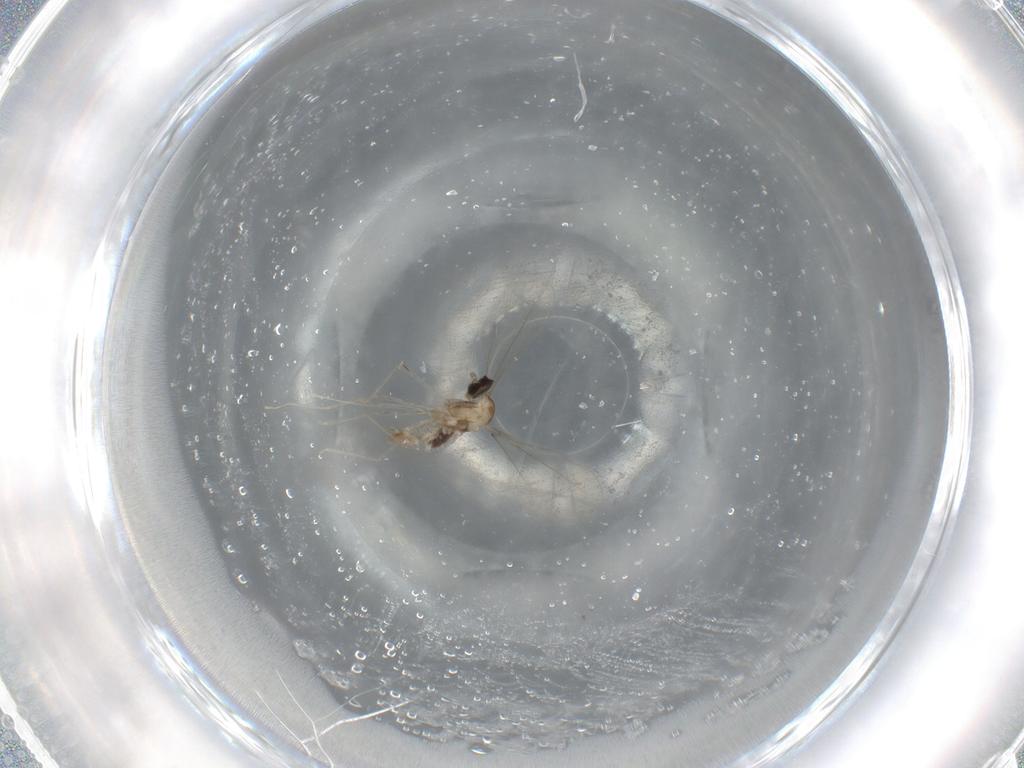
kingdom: Animalia
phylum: Arthropoda
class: Insecta
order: Diptera
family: Cecidomyiidae
